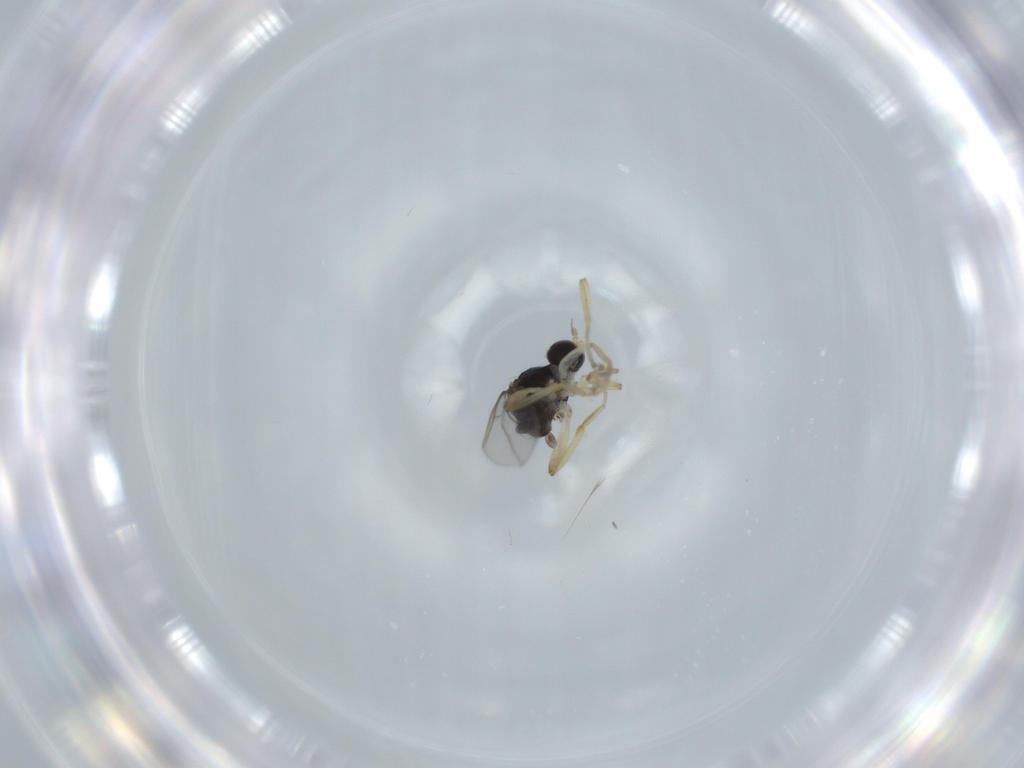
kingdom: Animalia
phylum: Arthropoda
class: Insecta
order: Diptera
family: Hybotidae
